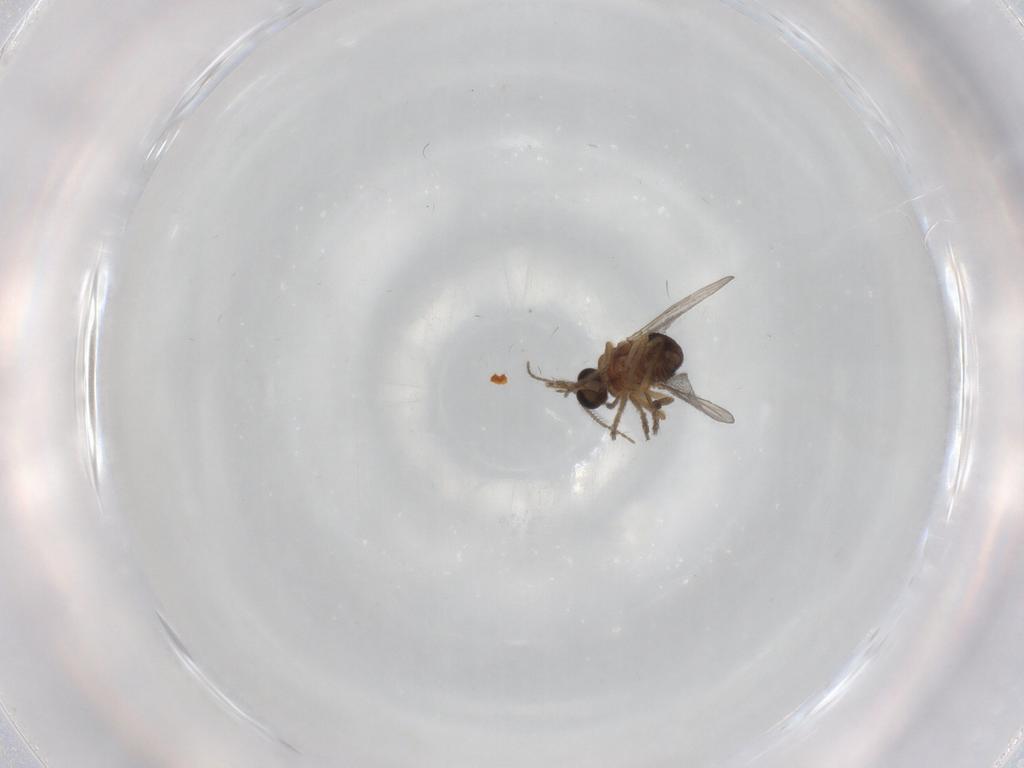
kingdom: Animalia
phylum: Arthropoda
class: Insecta
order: Diptera
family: Ceratopogonidae
